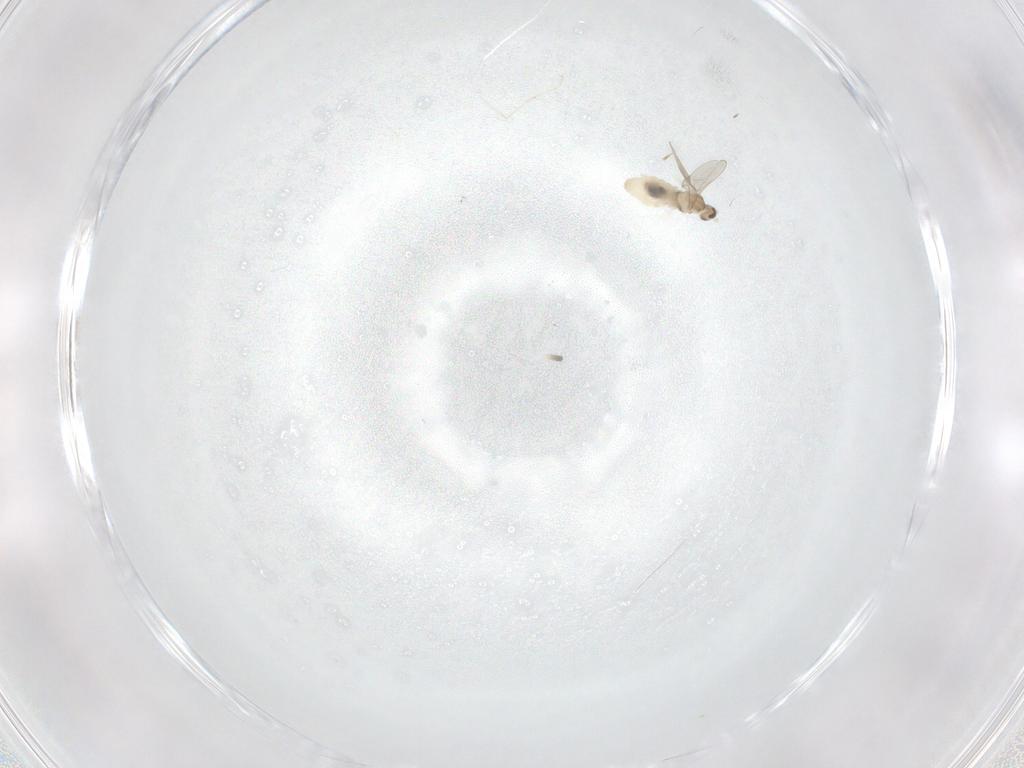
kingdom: Animalia
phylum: Arthropoda
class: Insecta
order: Diptera
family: Cecidomyiidae
